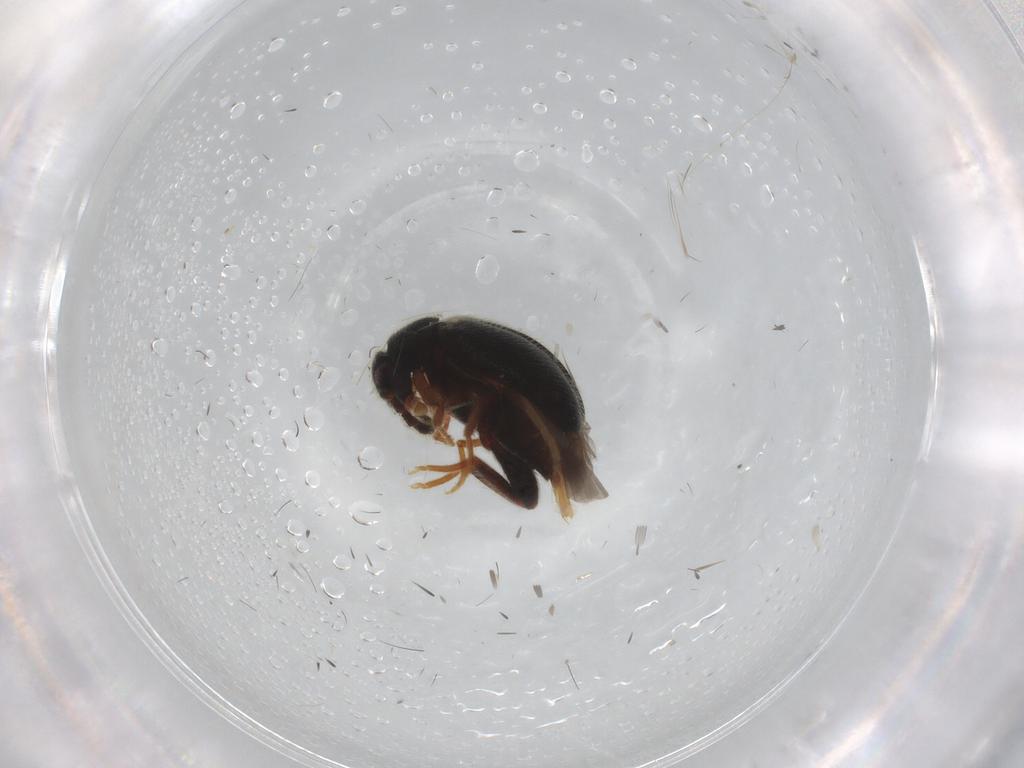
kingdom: Animalia
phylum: Arthropoda
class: Insecta
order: Coleoptera
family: Aderidae
